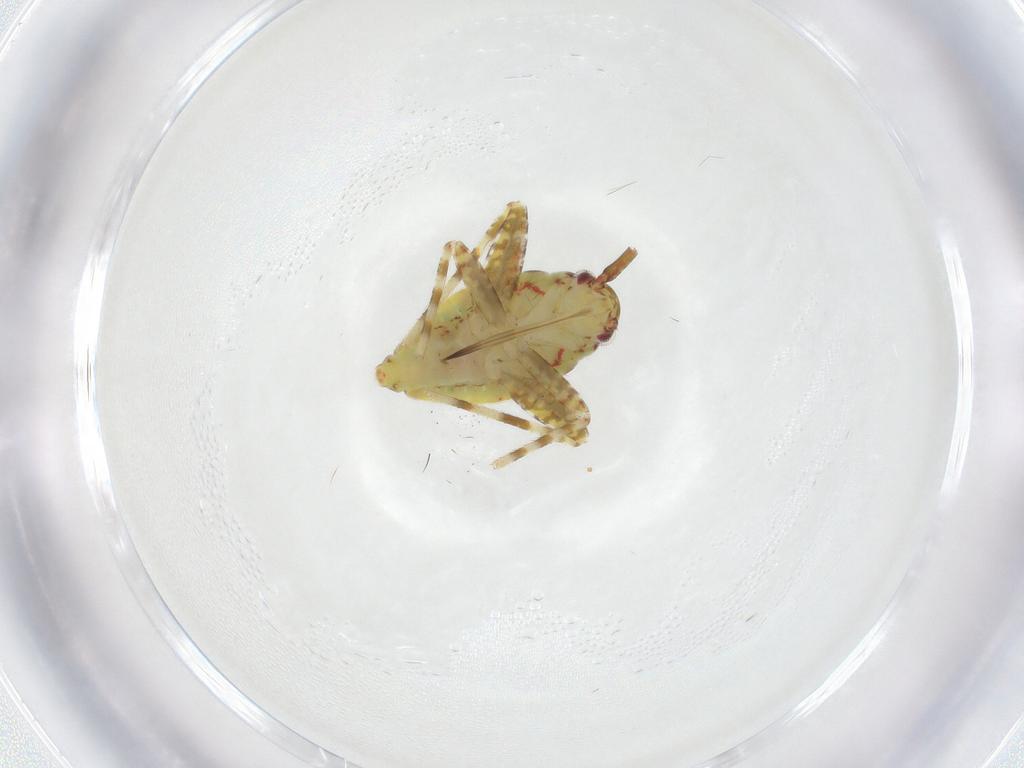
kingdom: Animalia
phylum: Arthropoda
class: Insecta
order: Hemiptera
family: Miridae
